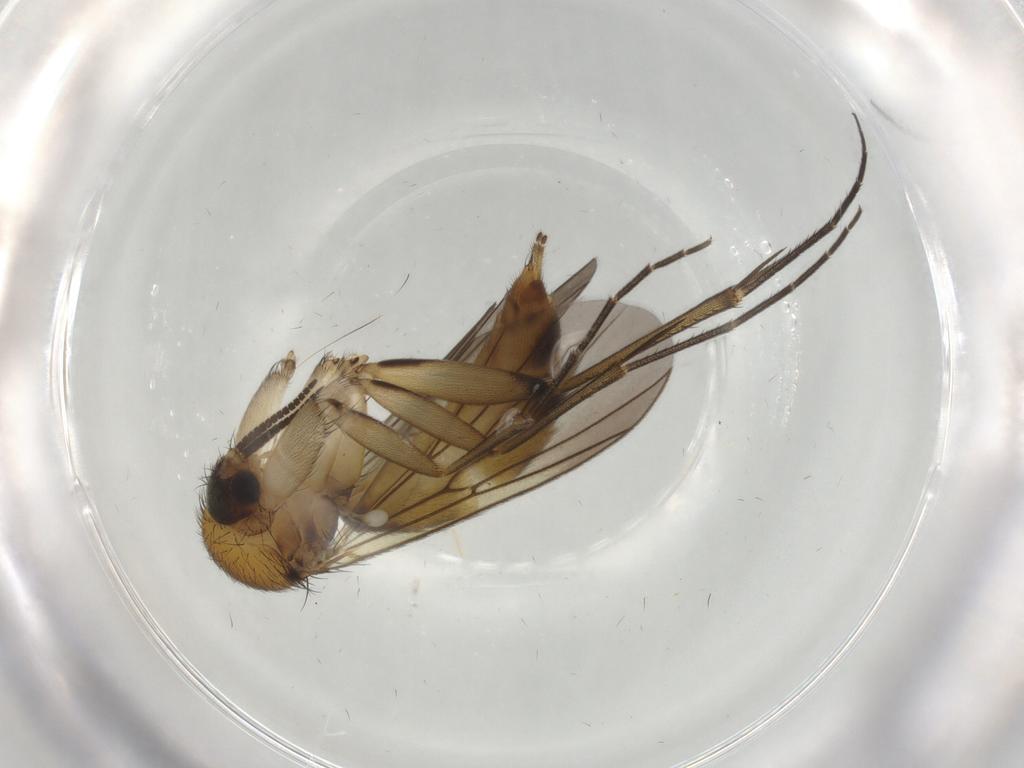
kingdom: Animalia
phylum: Arthropoda
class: Insecta
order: Diptera
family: Mycetophilidae
